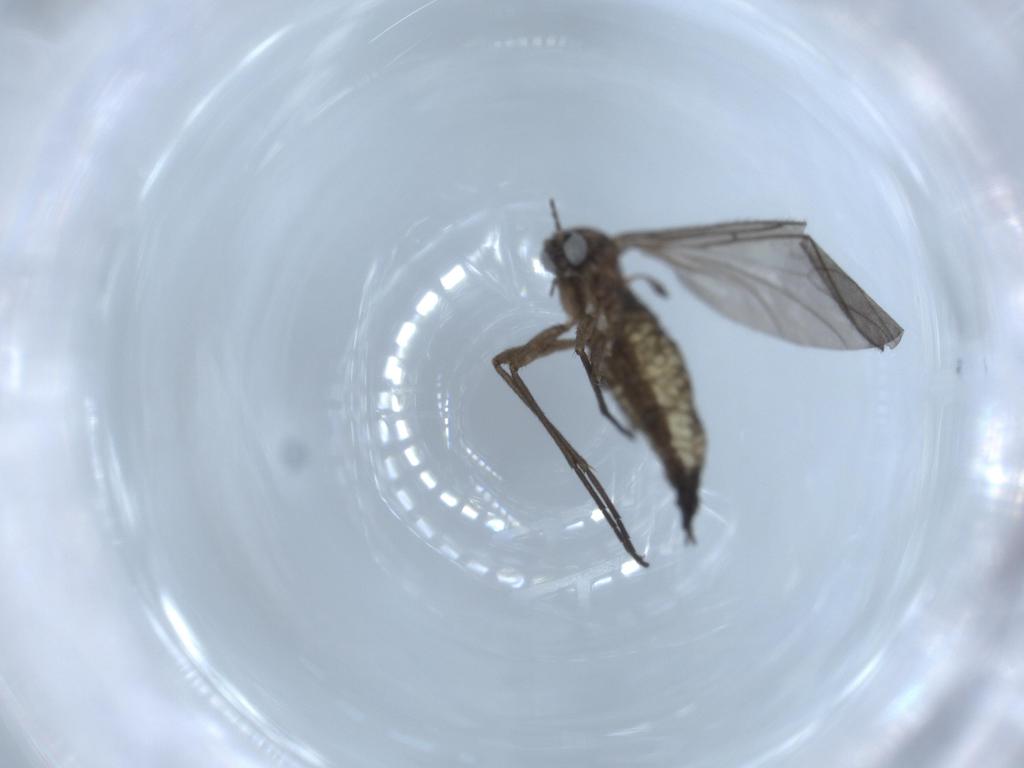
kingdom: Animalia
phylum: Arthropoda
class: Insecta
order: Diptera
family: Sciaridae
